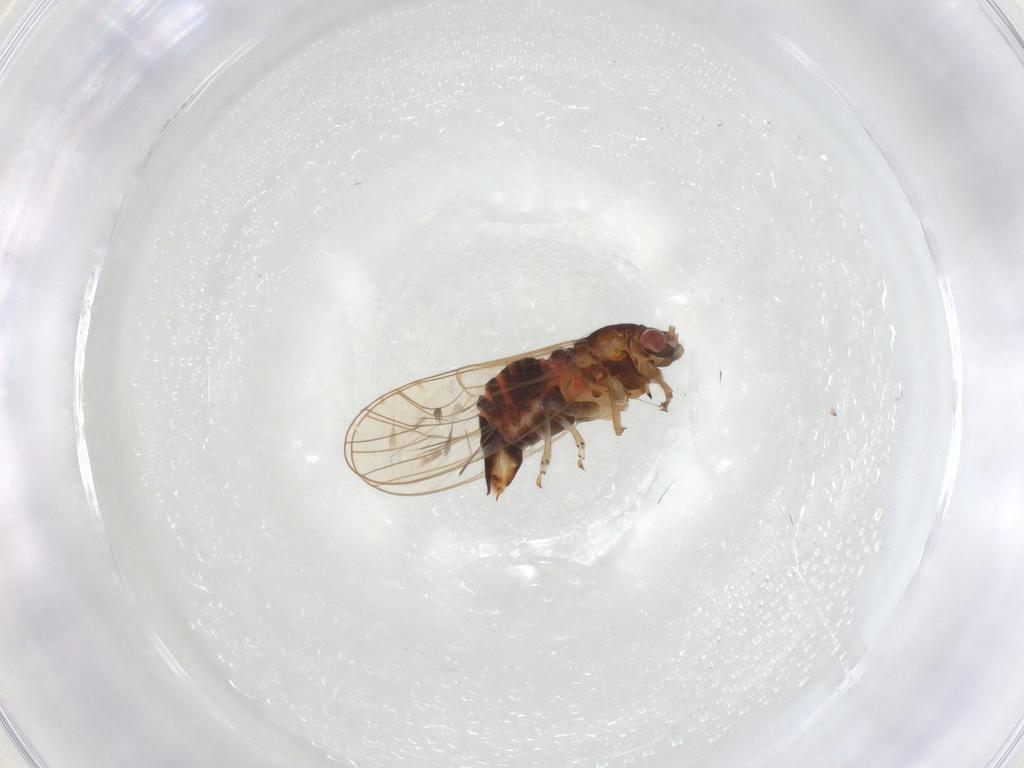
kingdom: Animalia
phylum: Arthropoda
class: Insecta
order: Hemiptera
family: Psyllidae
